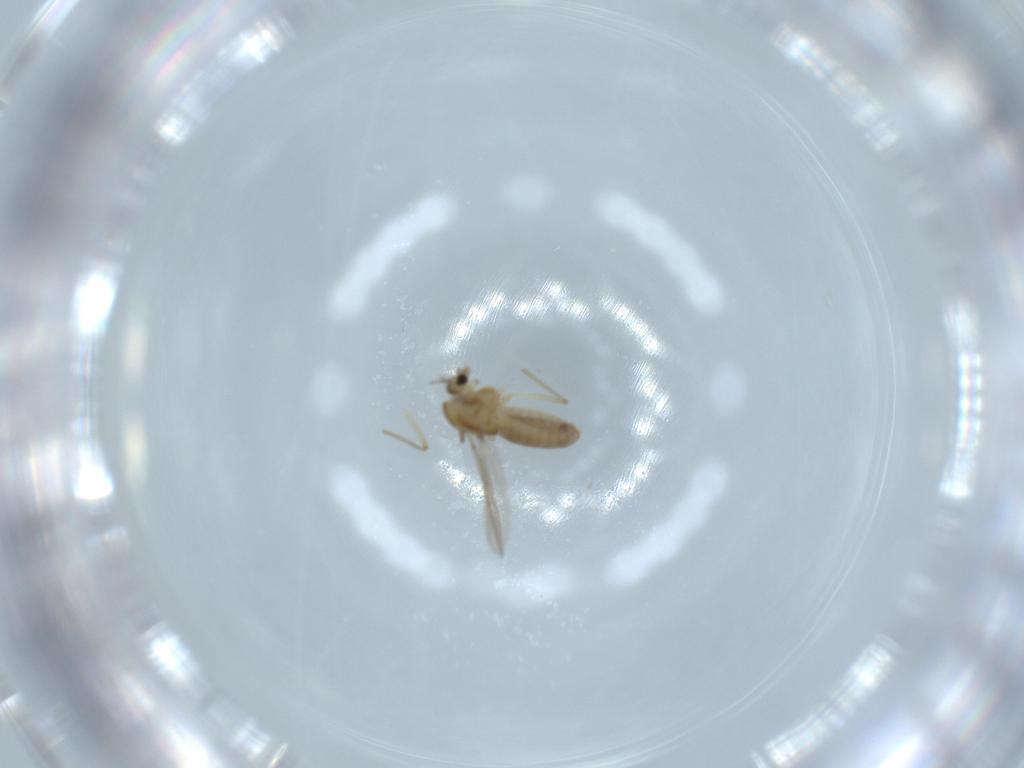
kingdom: Animalia
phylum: Arthropoda
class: Insecta
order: Diptera
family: Chironomidae
